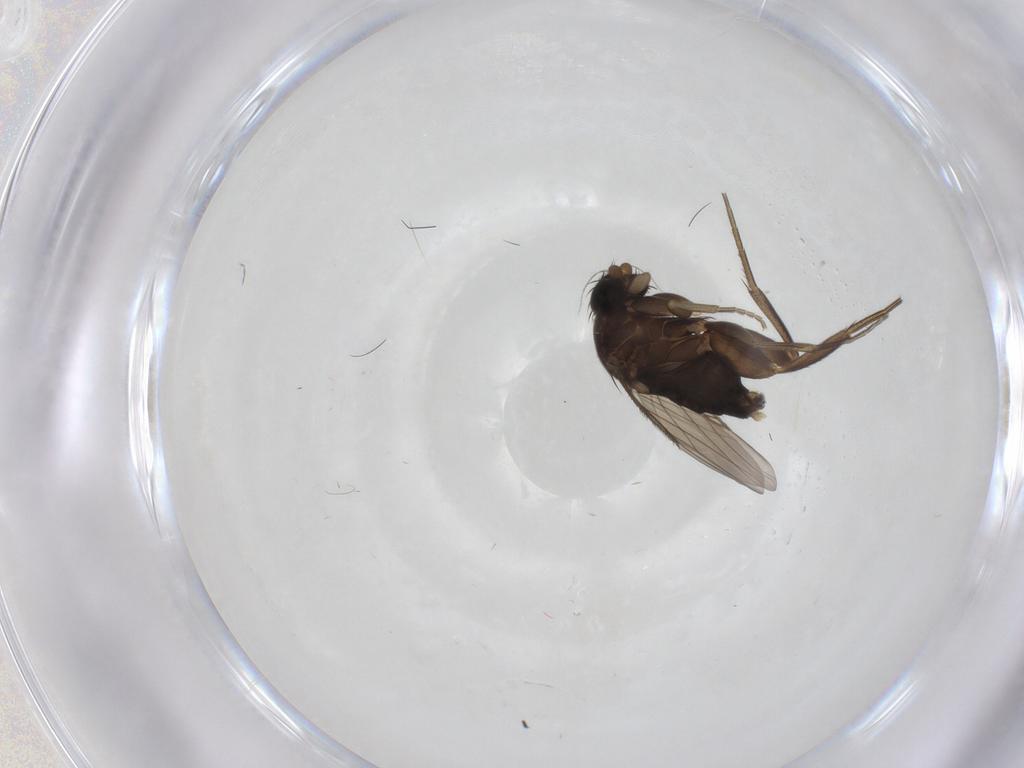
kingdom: Animalia
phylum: Arthropoda
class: Insecta
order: Diptera
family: Phoridae
